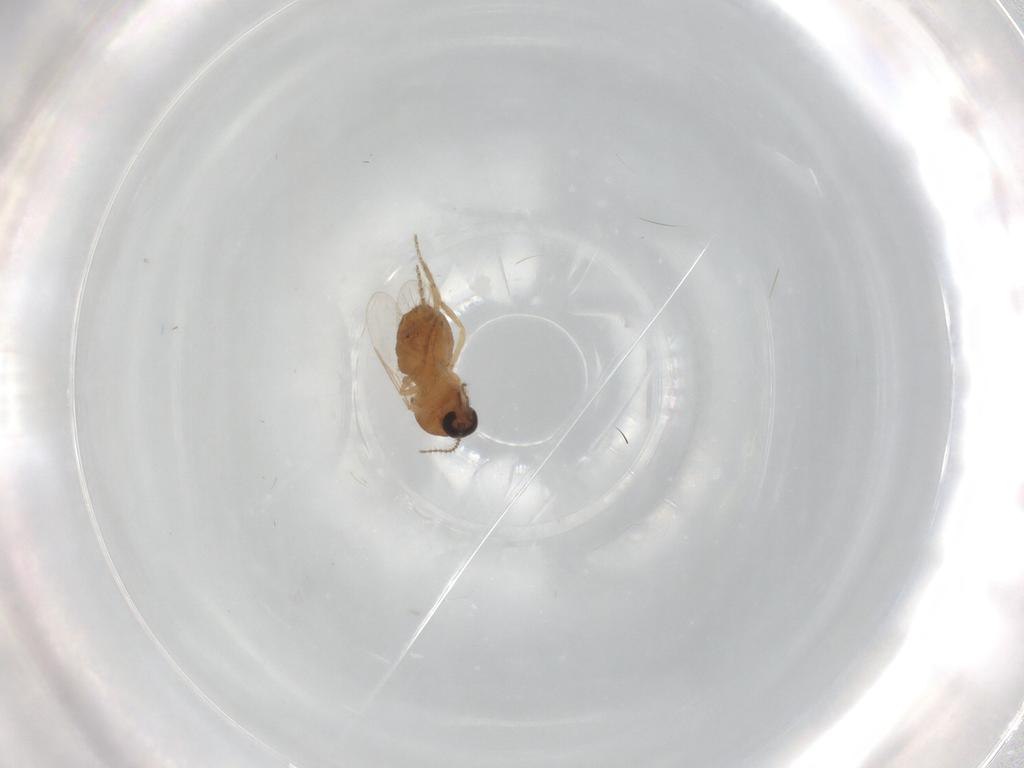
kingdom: Animalia
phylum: Arthropoda
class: Insecta
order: Diptera
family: Ceratopogonidae
